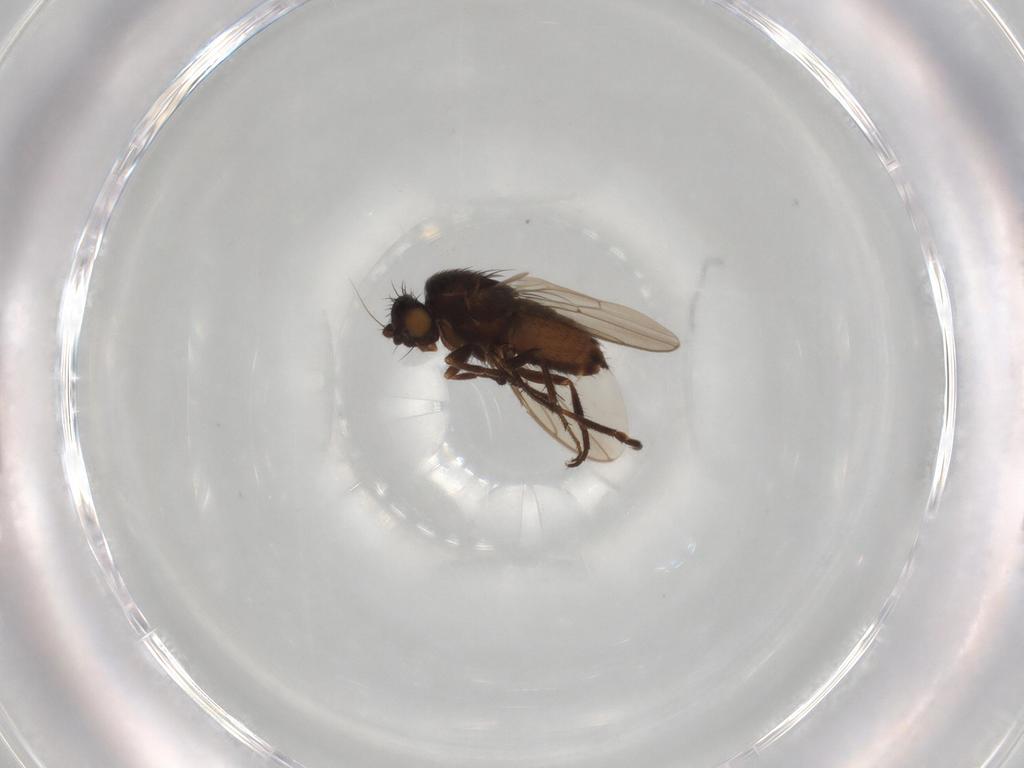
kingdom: Animalia
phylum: Arthropoda
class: Insecta
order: Diptera
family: Sphaeroceridae
